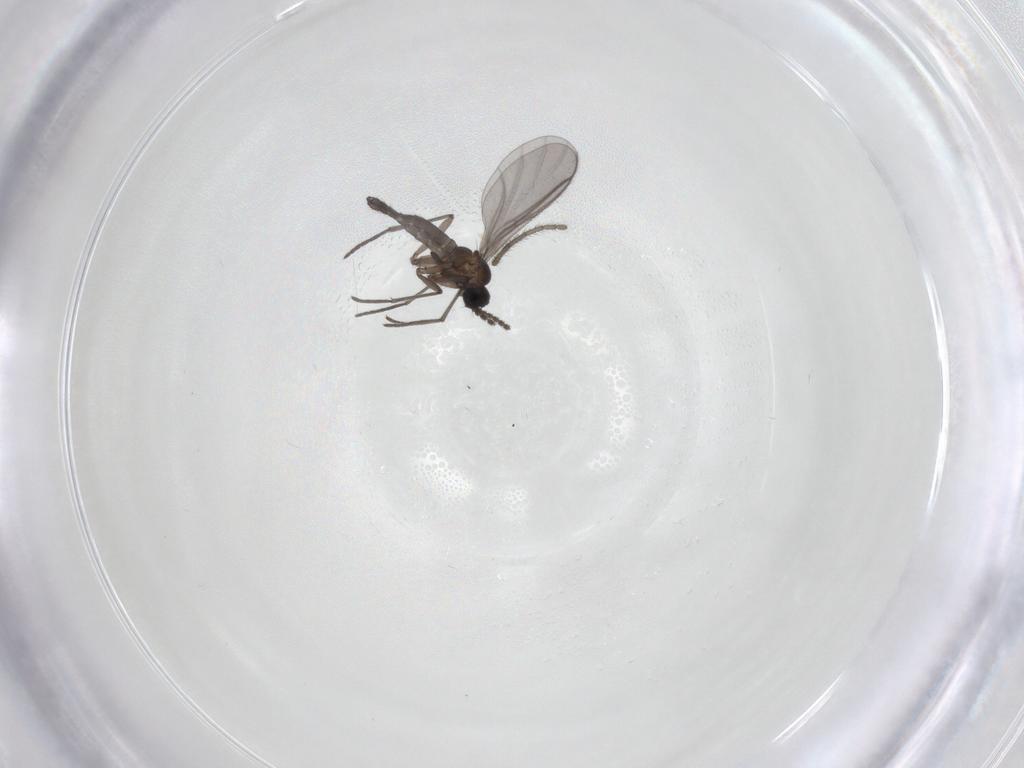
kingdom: Animalia
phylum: Arthropoda
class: Insecta
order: Diptera
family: Limoniidae
